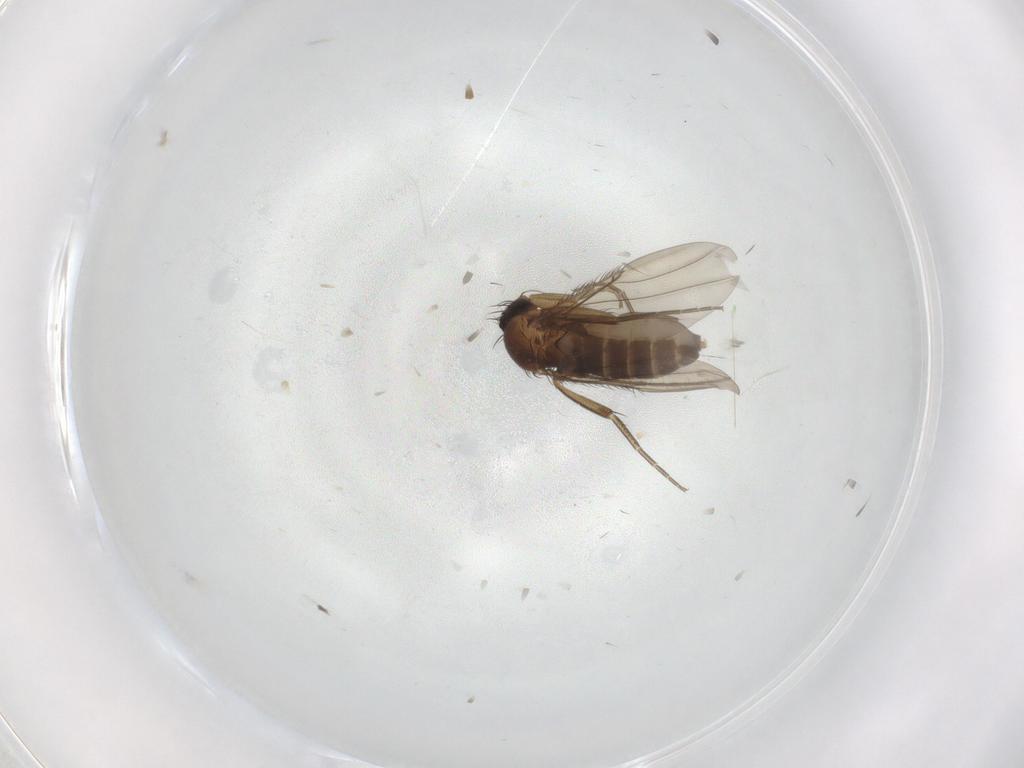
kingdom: Animalia
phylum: Arthropoda
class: Insecta
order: Diptera
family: Phoridae
